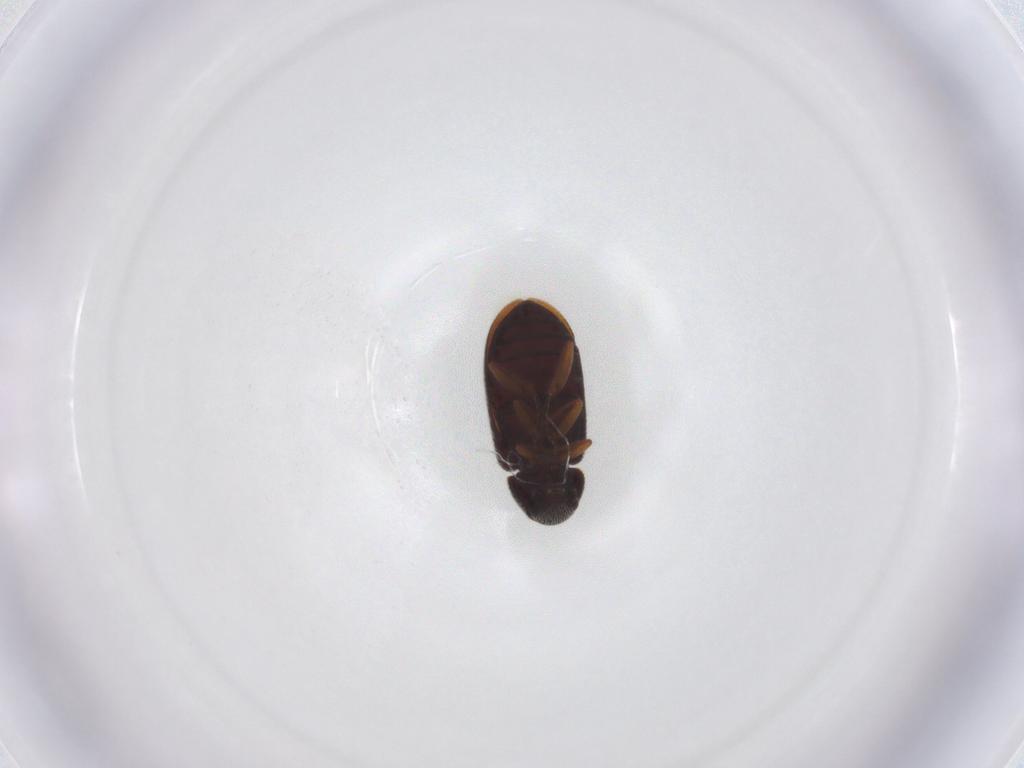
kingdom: Animalia
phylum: Arthropoda
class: Insecta
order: Coleoptera
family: Rhadalidae
